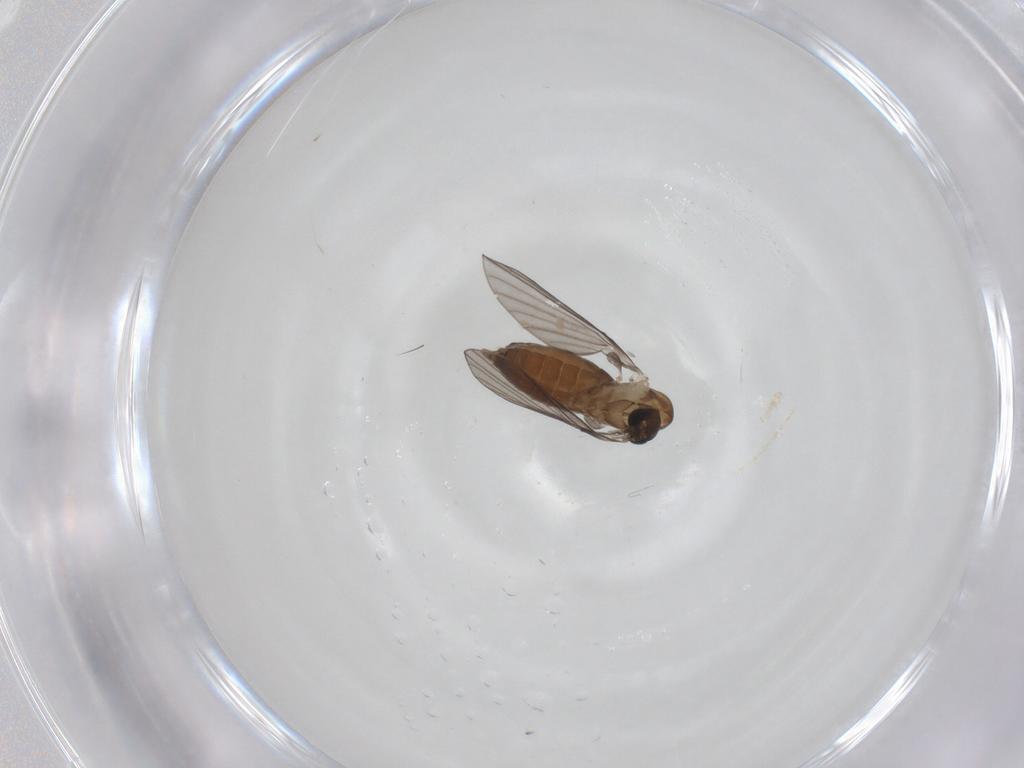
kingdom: Animalia
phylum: Arthropoda
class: Insecta
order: Diptera
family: Psychodidae
